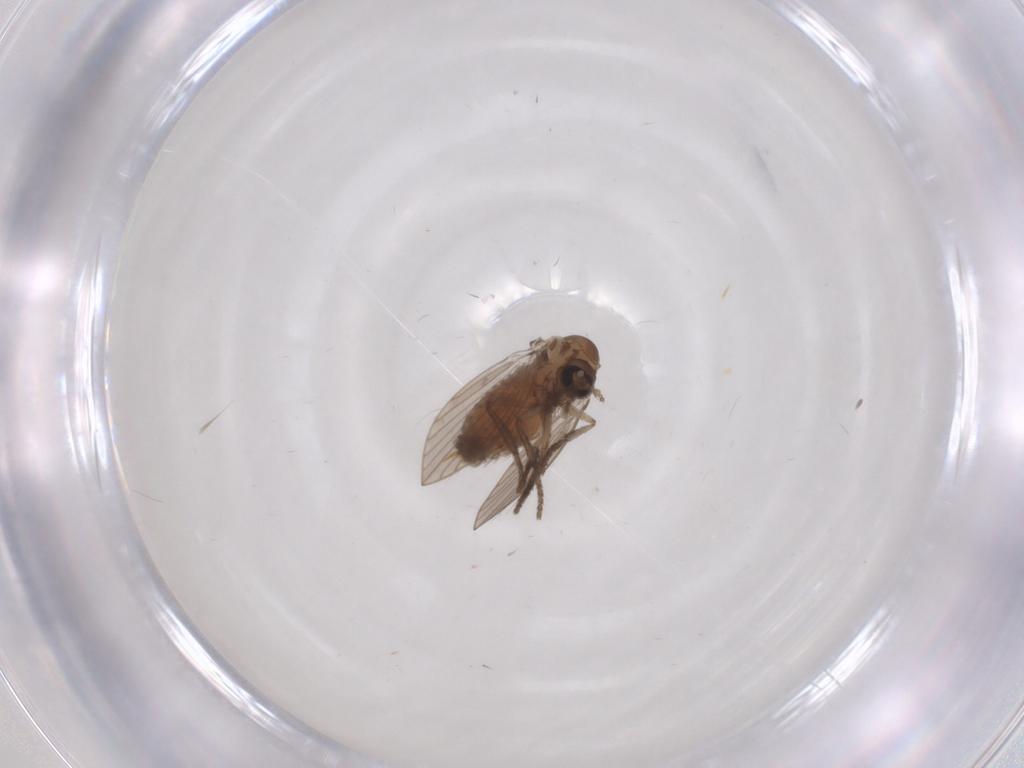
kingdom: Animalia
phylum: Arthropoda
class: Insecta
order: Diptera
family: Psychodidae
